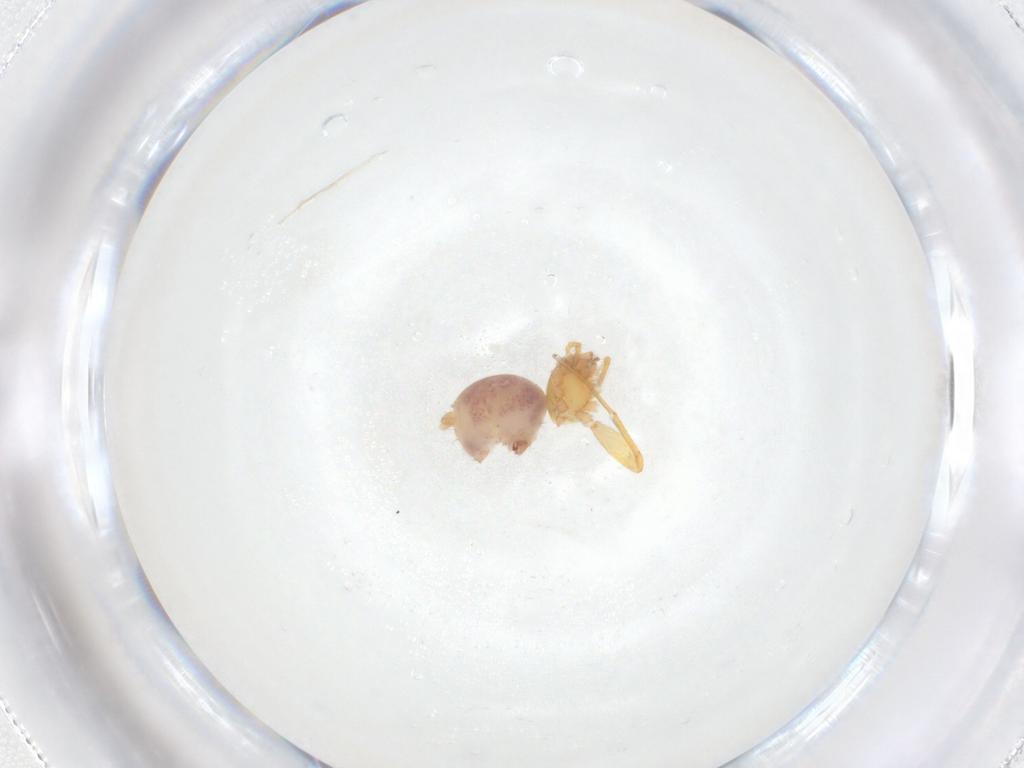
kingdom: Animalia
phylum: Arthropoda
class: Arachnida
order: Araneae
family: Oonopidae
